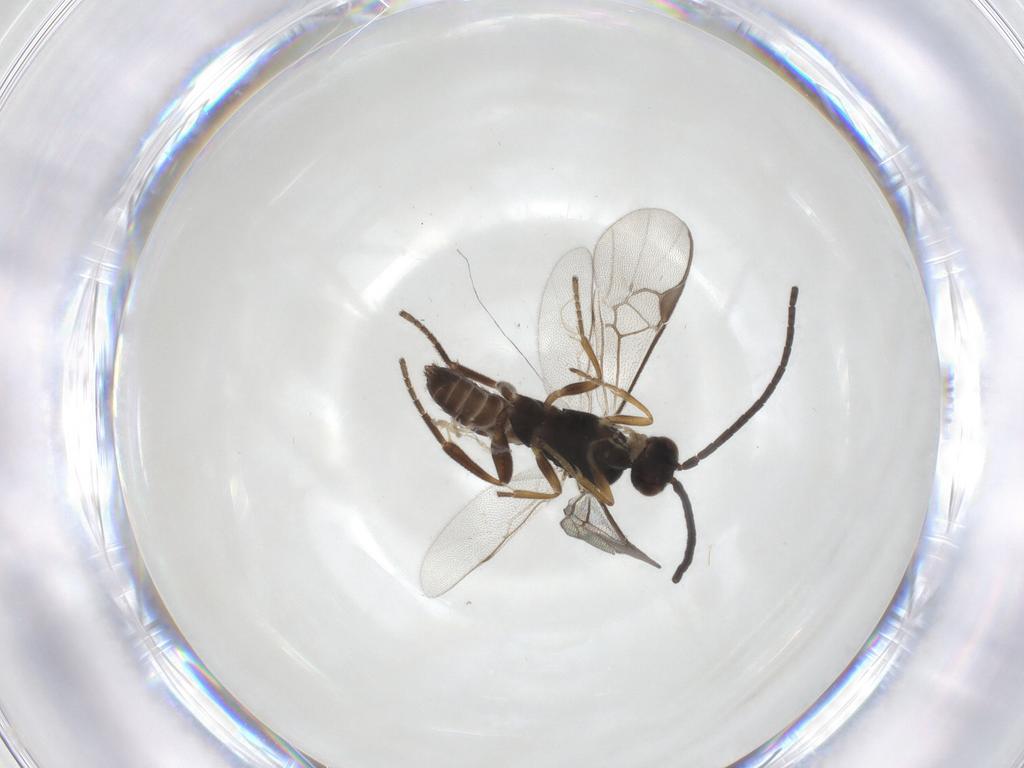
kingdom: Animalia
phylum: Arthropoda
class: Insecta
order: Hymenoptera
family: Braconidae
